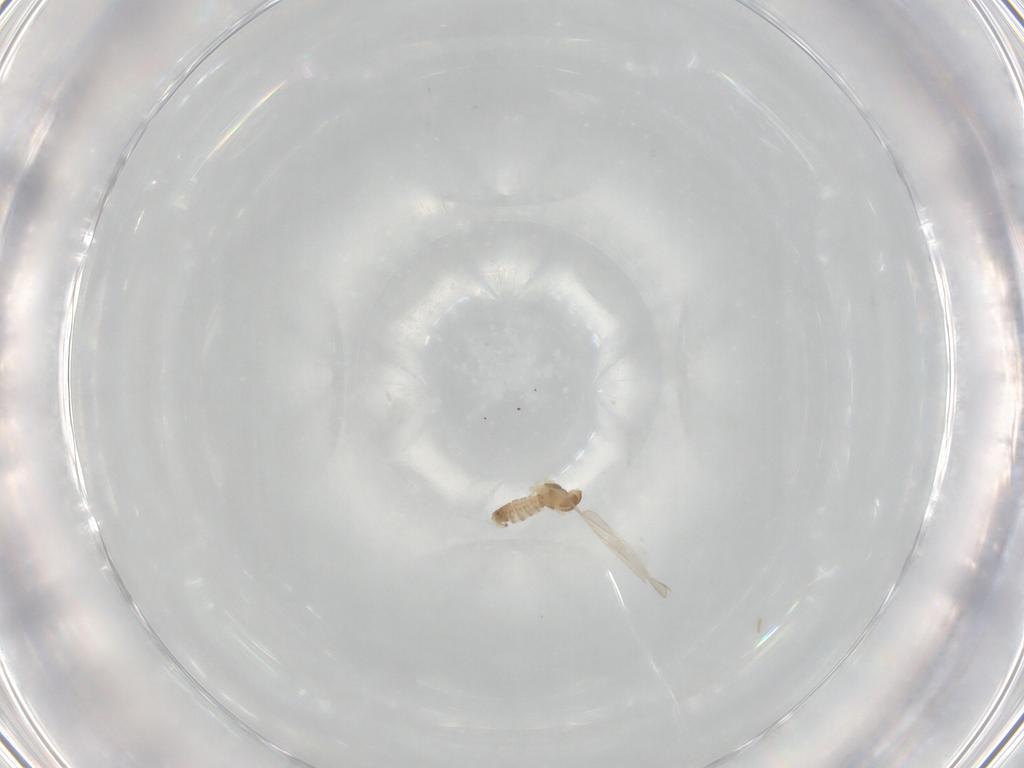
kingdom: Animalia
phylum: Arthropoda
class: Insecta
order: Diptera
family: Cecidomyiidae
